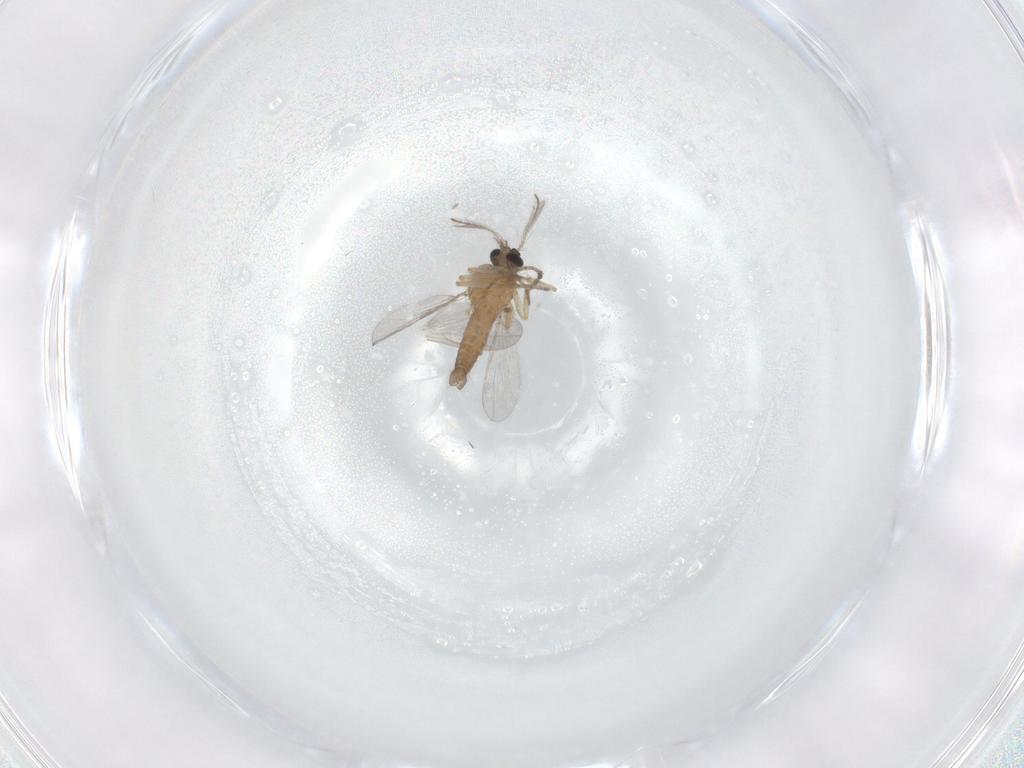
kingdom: Animalia
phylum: Arthropoda
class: Insecta
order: Diptera
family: Ceratopogonidae
